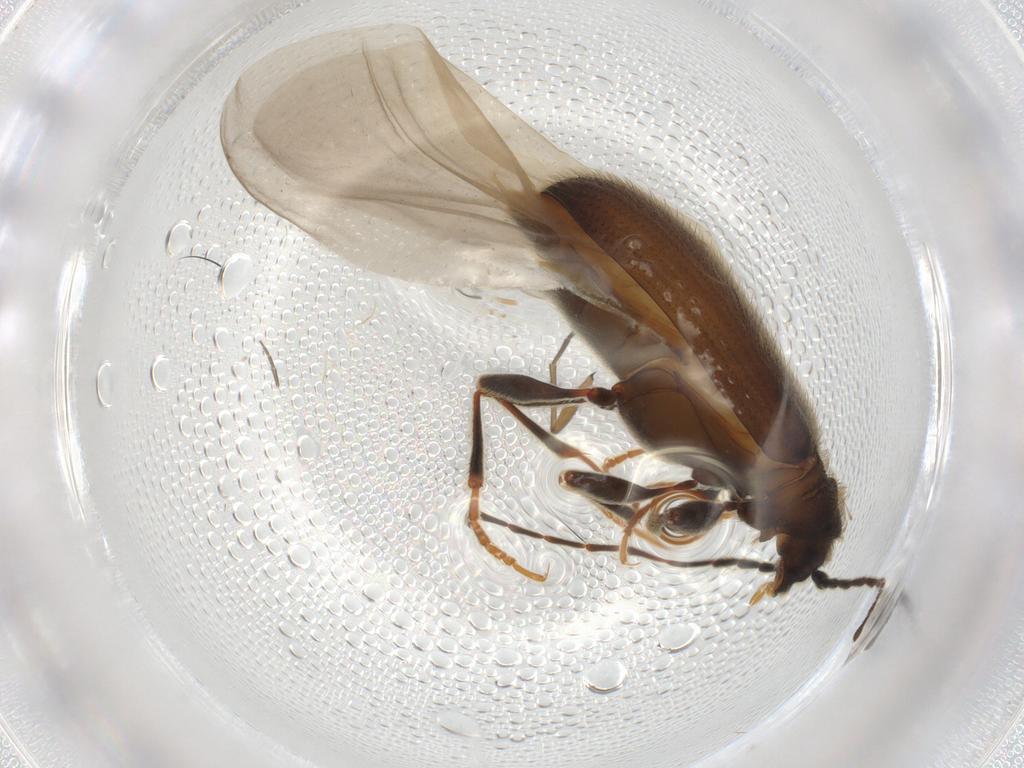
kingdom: Animalia
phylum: Arthropoda
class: Insecta
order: Coleoptera
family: Ptinidae
